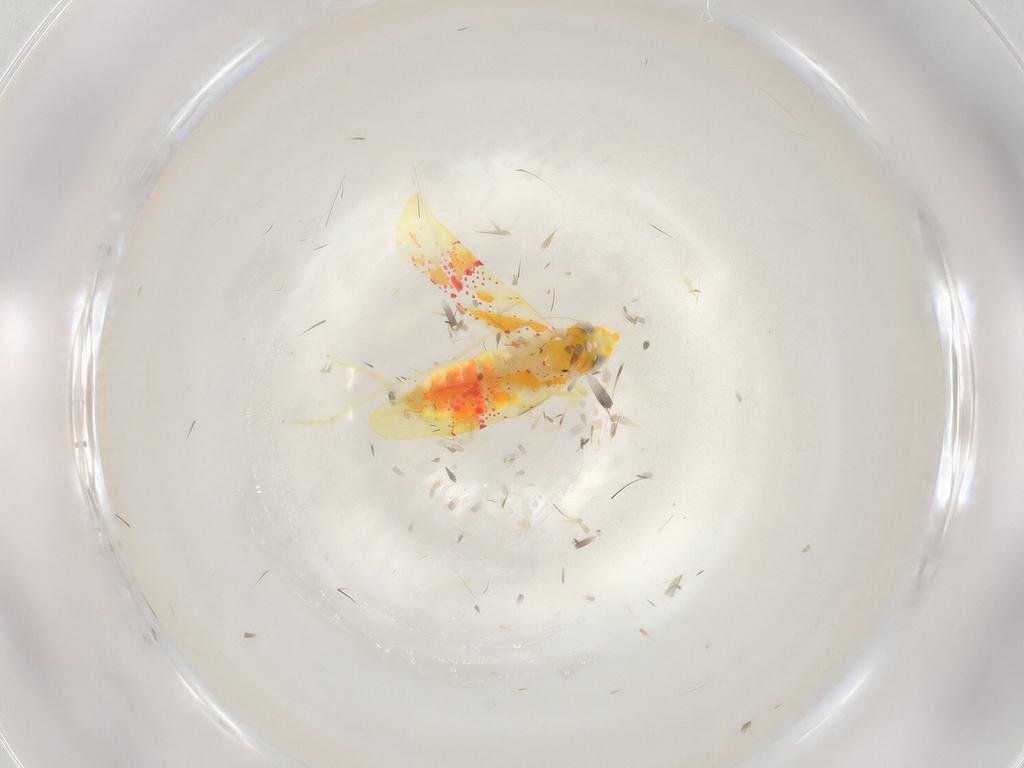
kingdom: Animalia
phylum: Arthropoda
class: Insecta
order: Hemiptera
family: Cicadellidae
